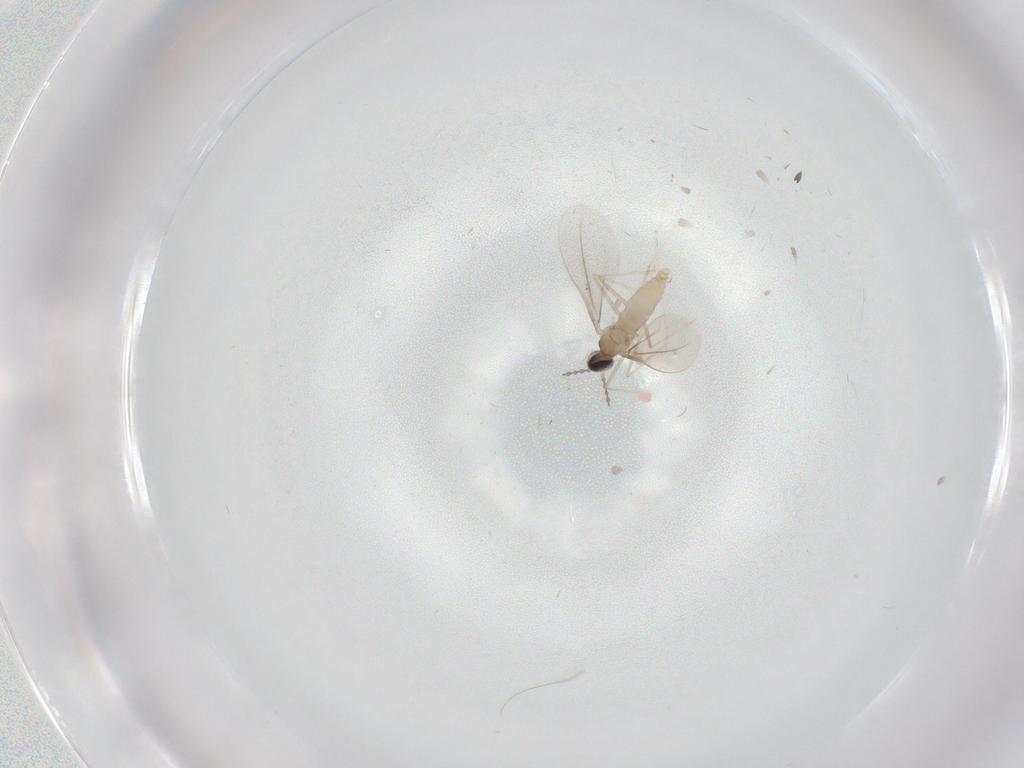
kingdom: Animalia
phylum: Arthropoda
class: Insecta
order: Diptera
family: Cecidomyiidae
